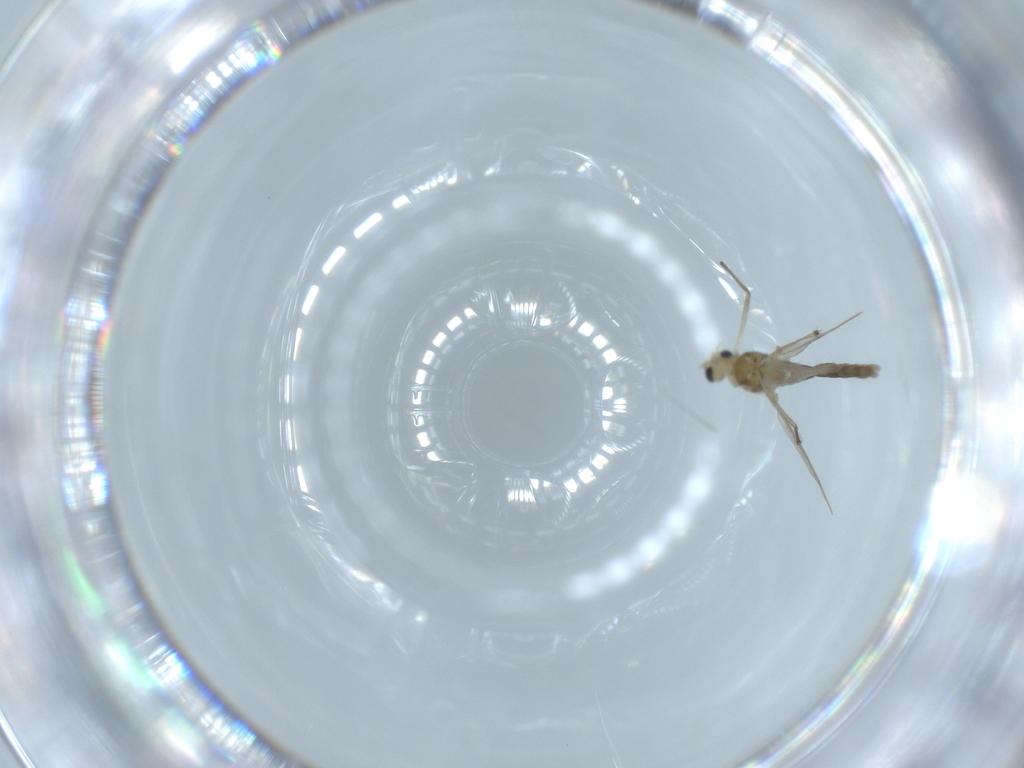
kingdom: Animalia
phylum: Arthropoda
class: Insecta
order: Diptera
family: Chironomidae
